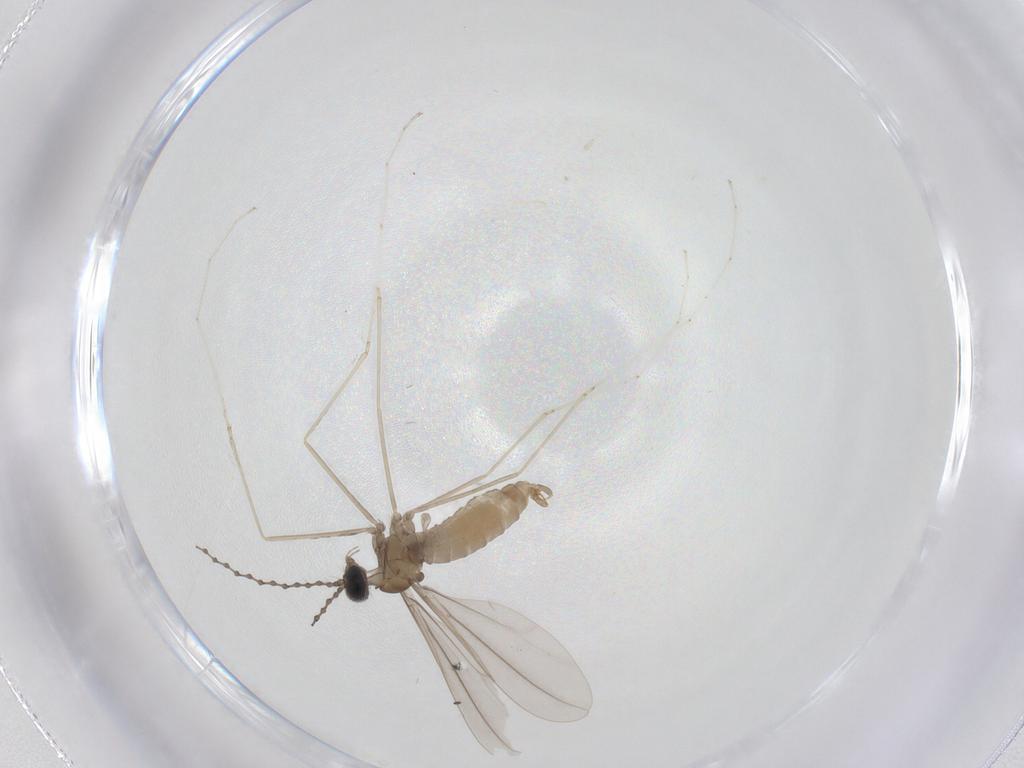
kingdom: Animalia
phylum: Arthropoda
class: Insecta
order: Diptera
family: Cecidomyiidae
